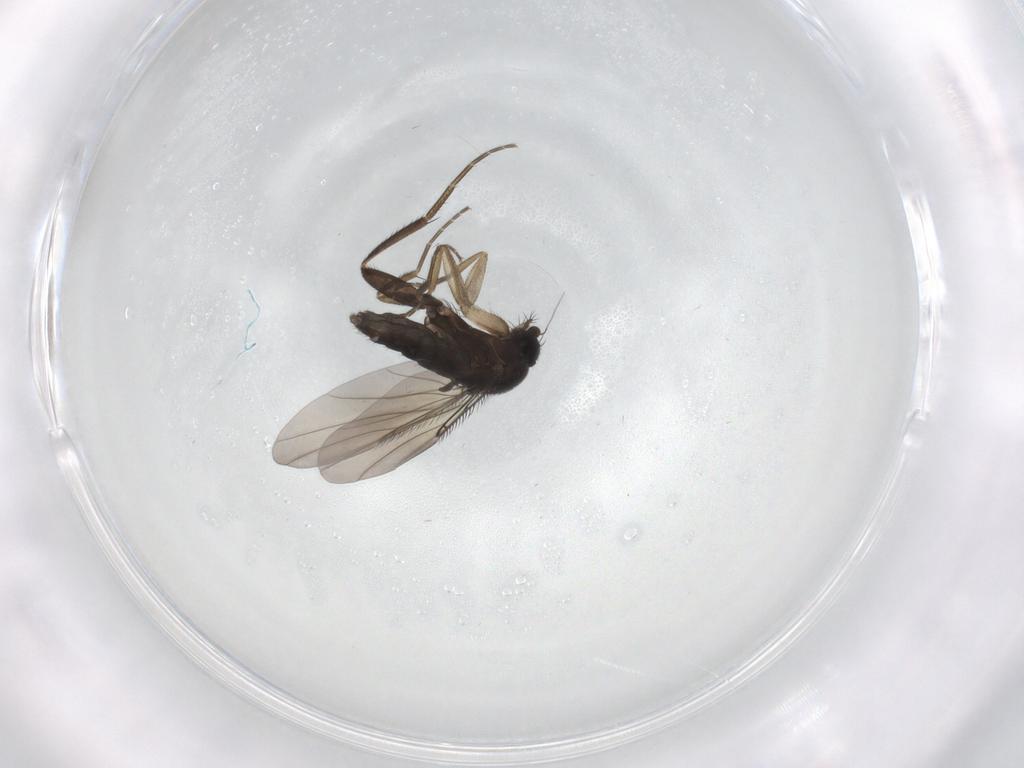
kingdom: Animalia
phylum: Arthropoda
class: Insecta
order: Diptera
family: Phoridae
